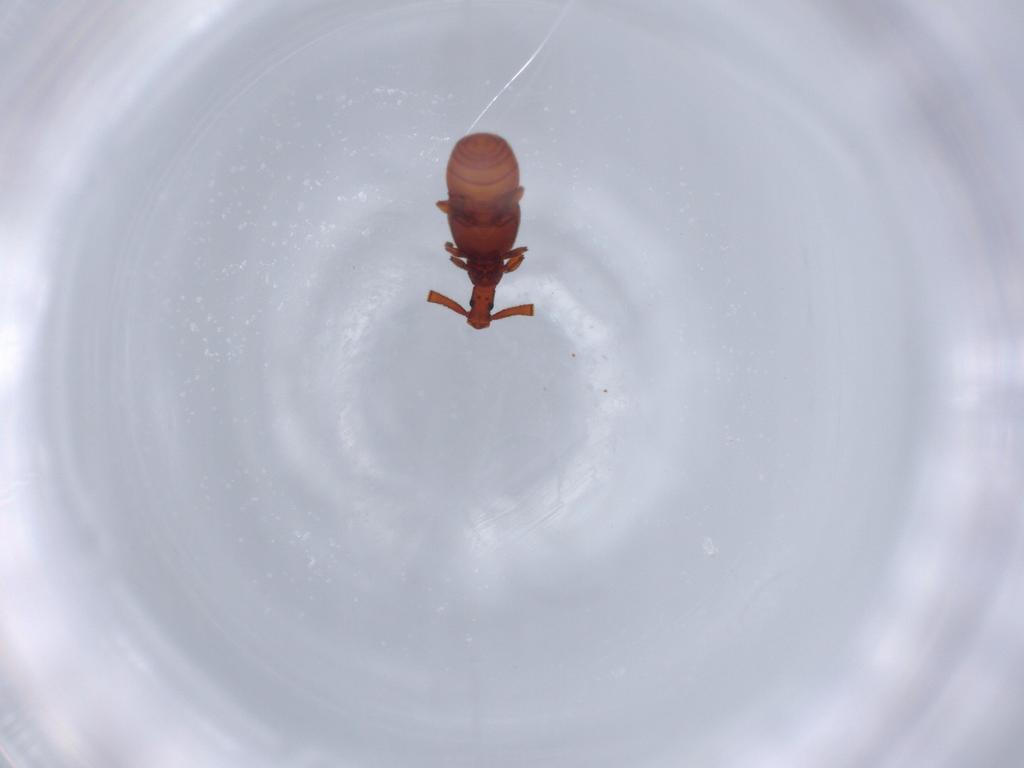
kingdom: Animalia
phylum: Arthropoda
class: Insecta
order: Coleoptera
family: Staphylinidae
